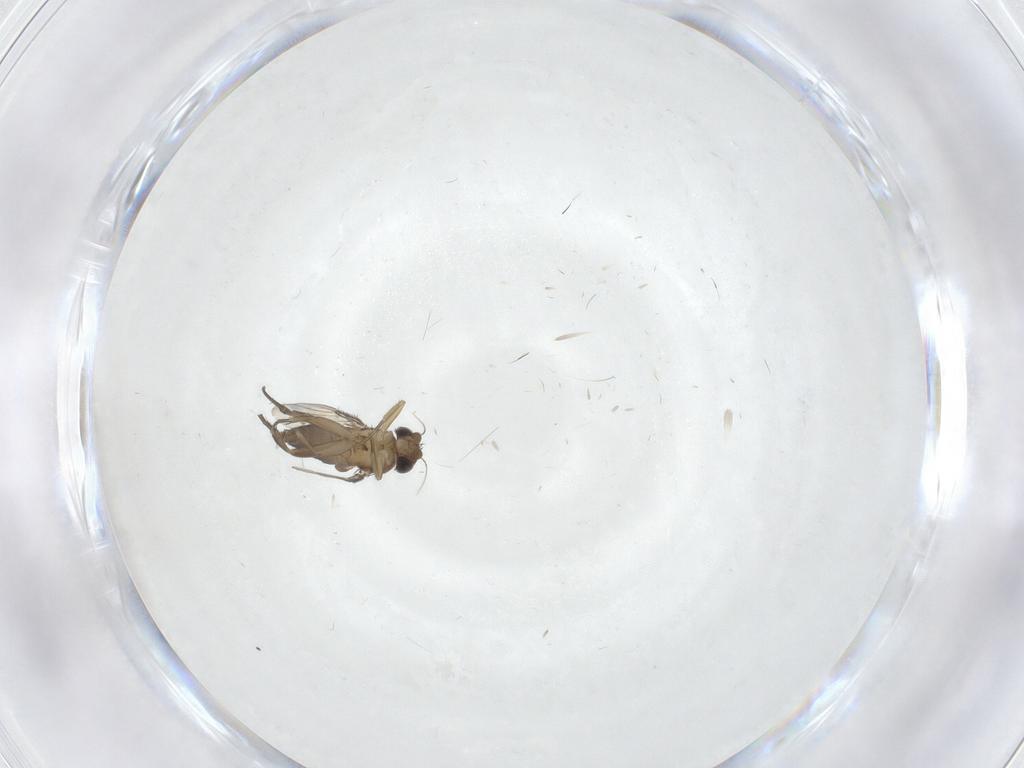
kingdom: Animalia
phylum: Arthropoda
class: Insecta
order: Diptera
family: Phoridae
